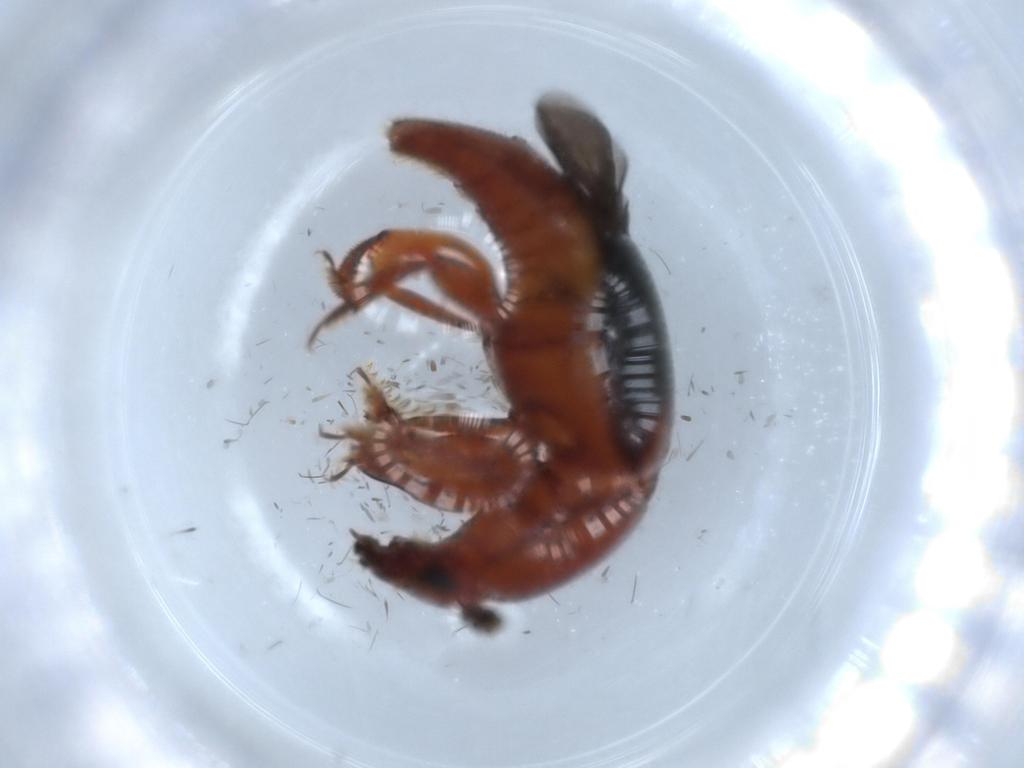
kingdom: Animalia
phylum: Arthropoda
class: Insecta
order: Coleoptera
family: Nitidulidae
